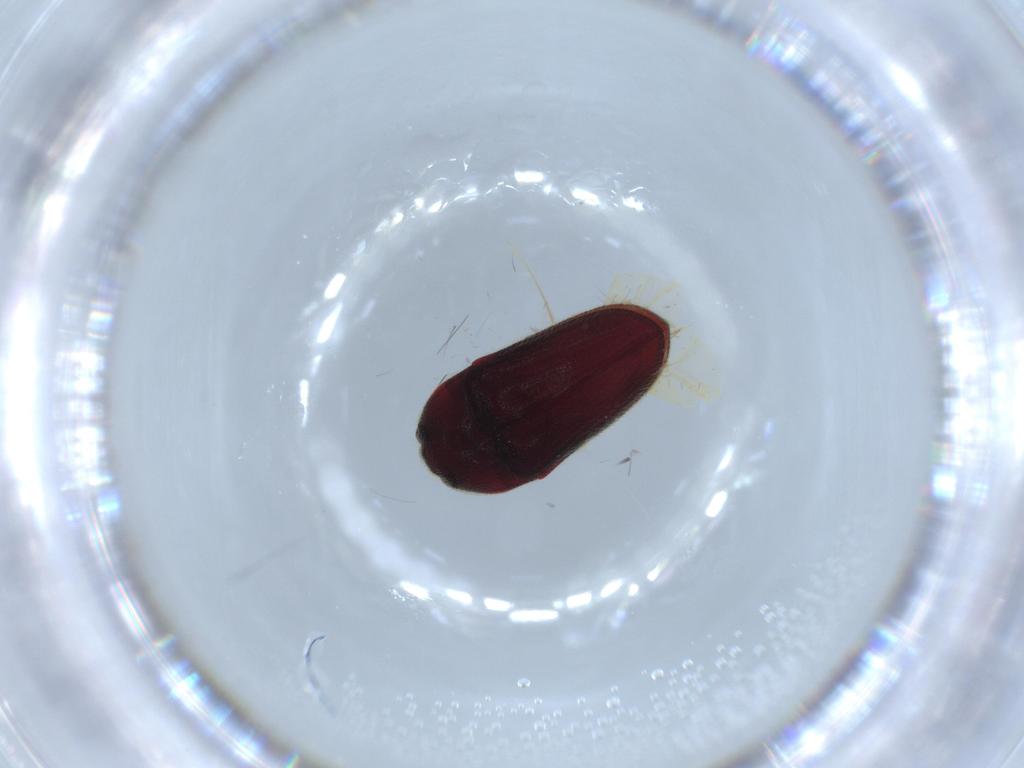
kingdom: Animalia
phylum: Arthropoda
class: Insecta
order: Coleoptera
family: Throscidae
